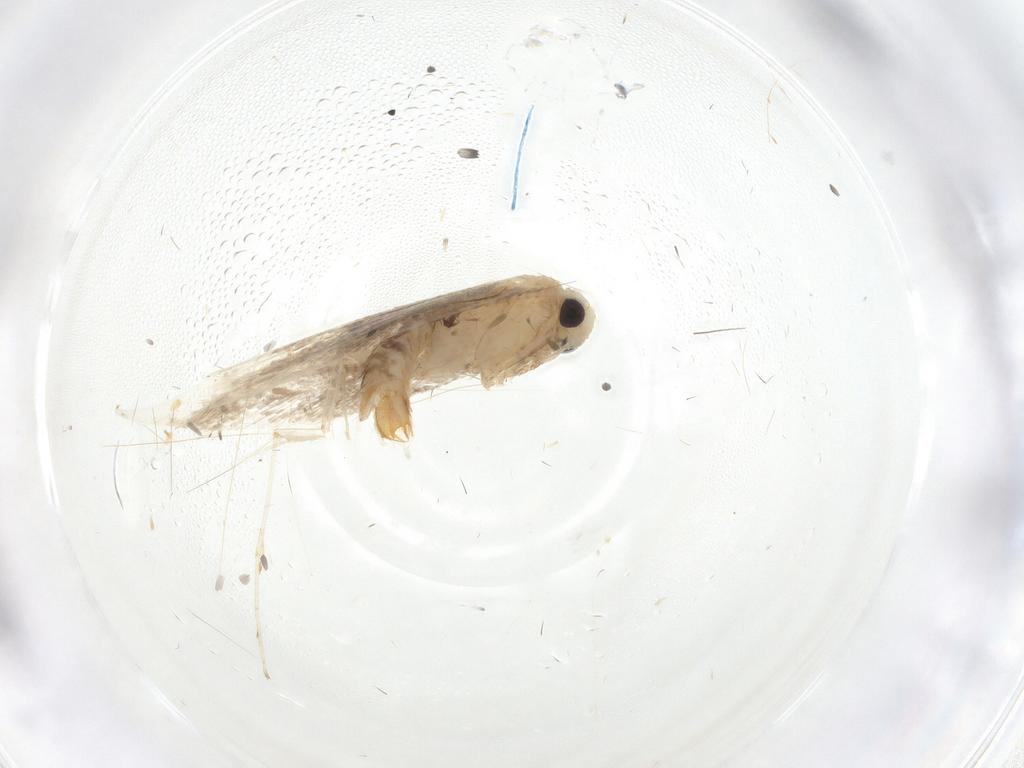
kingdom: Animalia
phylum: Arthropoda
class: Insecta
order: Lepidoptera
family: Gracillariidae
